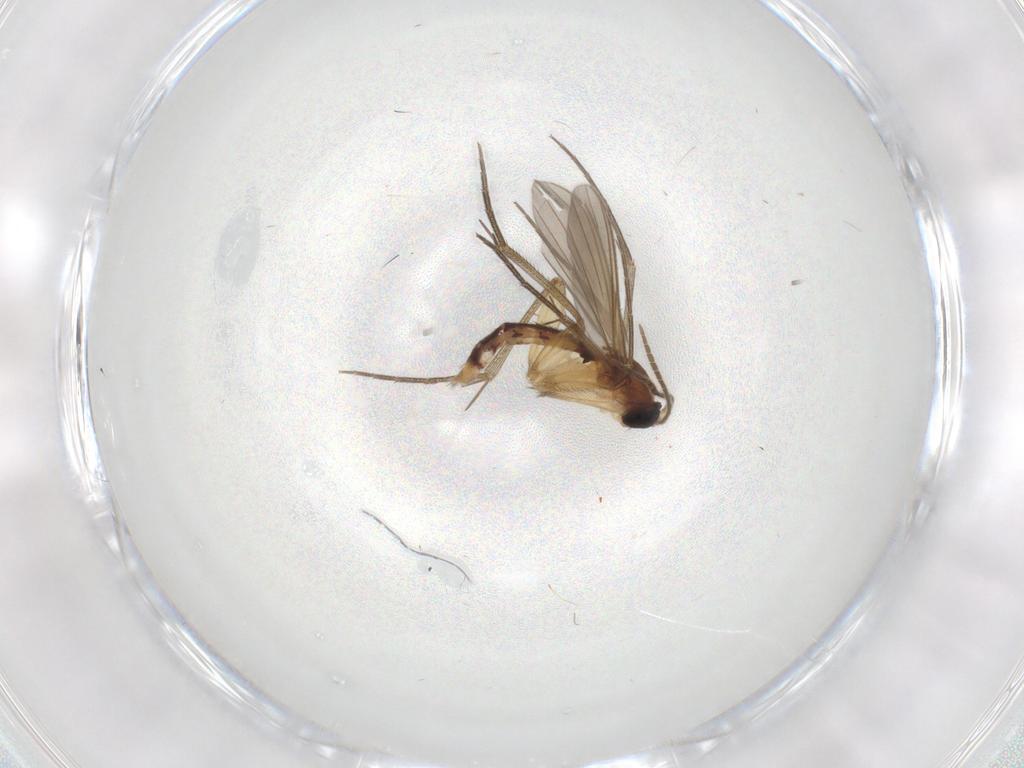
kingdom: Animalia
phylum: Arthropoda
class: Insecta
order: Diptera
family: Mycetophilidae
